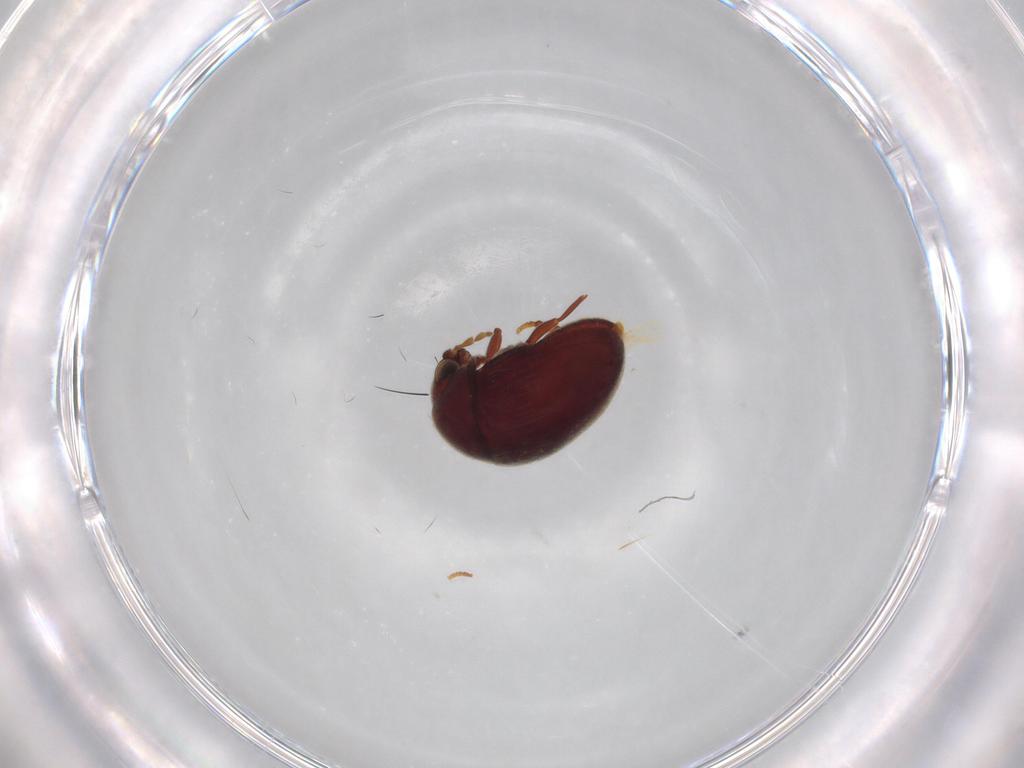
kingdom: Animalia
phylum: Arthropoda
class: Insecta
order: Coleoptera
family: Ptinidae
